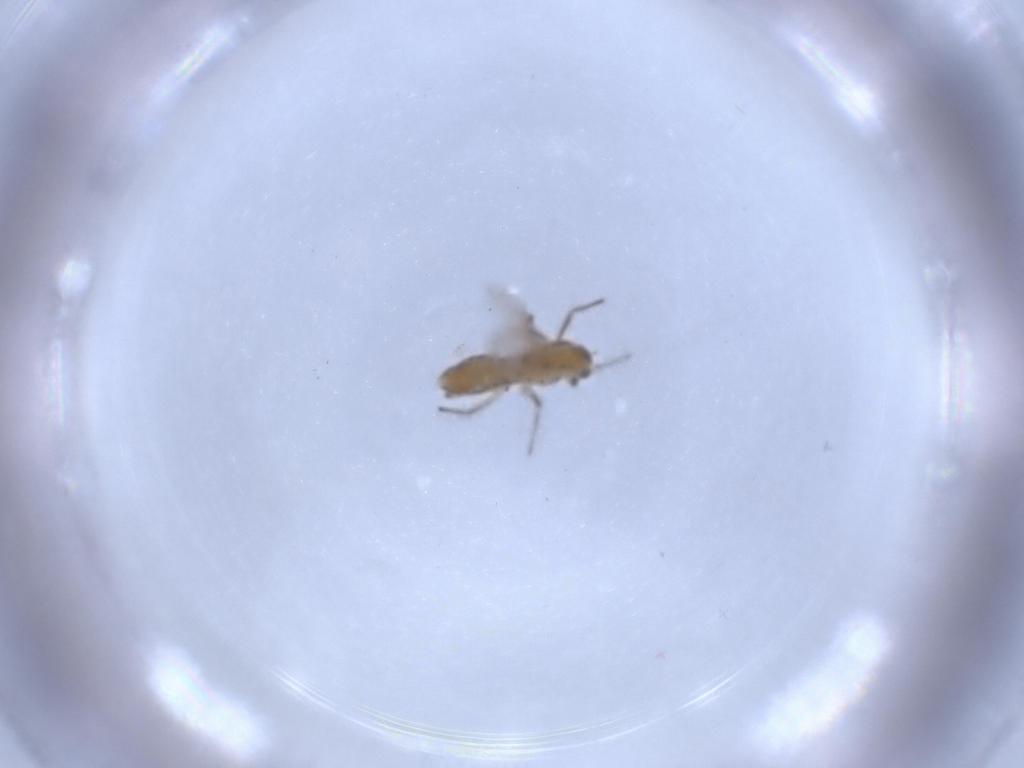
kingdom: Animalia
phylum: Arthropoda
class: Insecta
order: Diptera
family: Chironomidae
